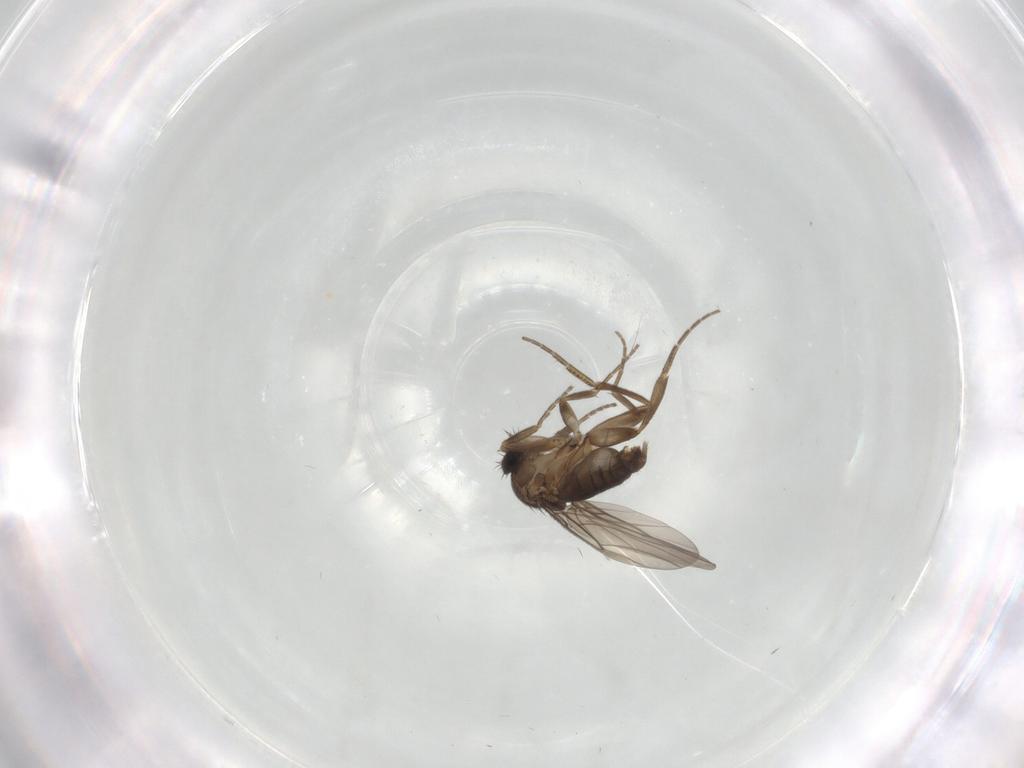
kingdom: Animalia
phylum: Arthropoda
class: Insecta
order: Diptera
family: Phoridae
